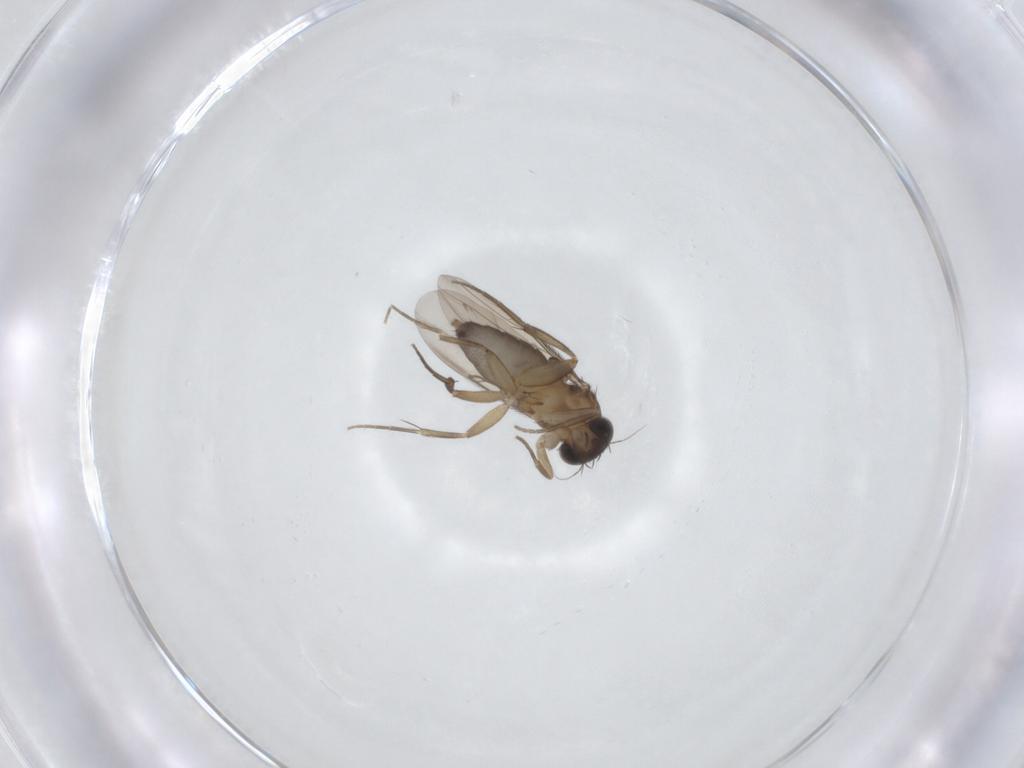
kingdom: Animalia
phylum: Arthropoda
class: Insecta
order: Diptera
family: Phoridae
